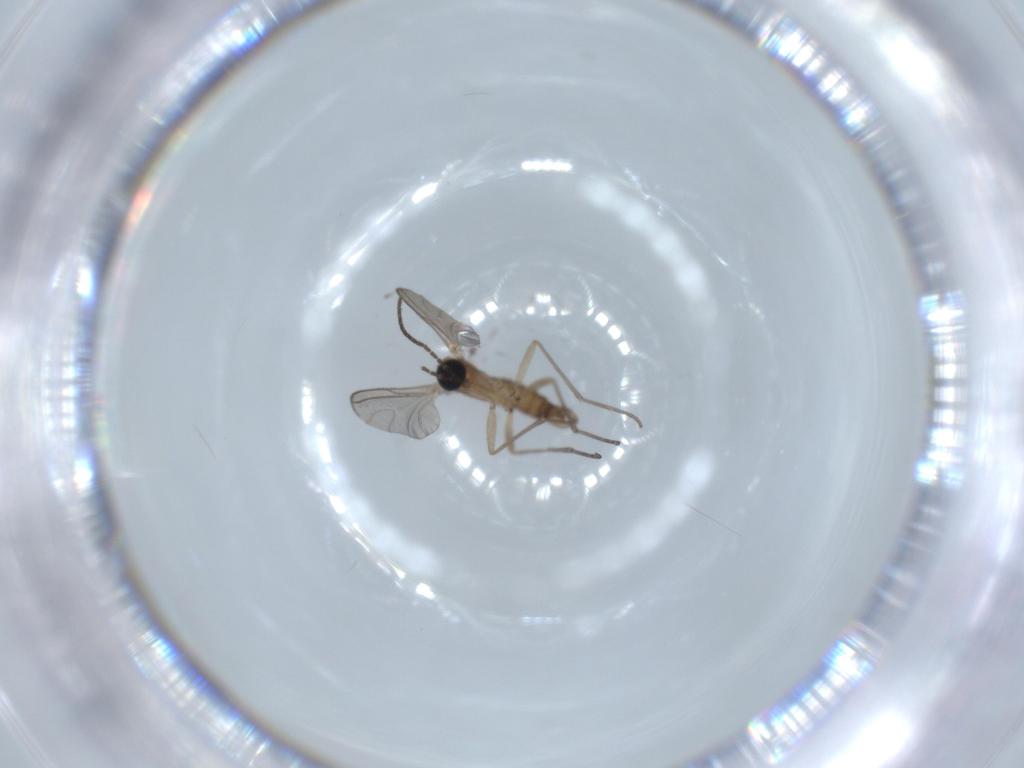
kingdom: Animalia
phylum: Arthropoda
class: Insecta
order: Diptera
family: Sciaridae
